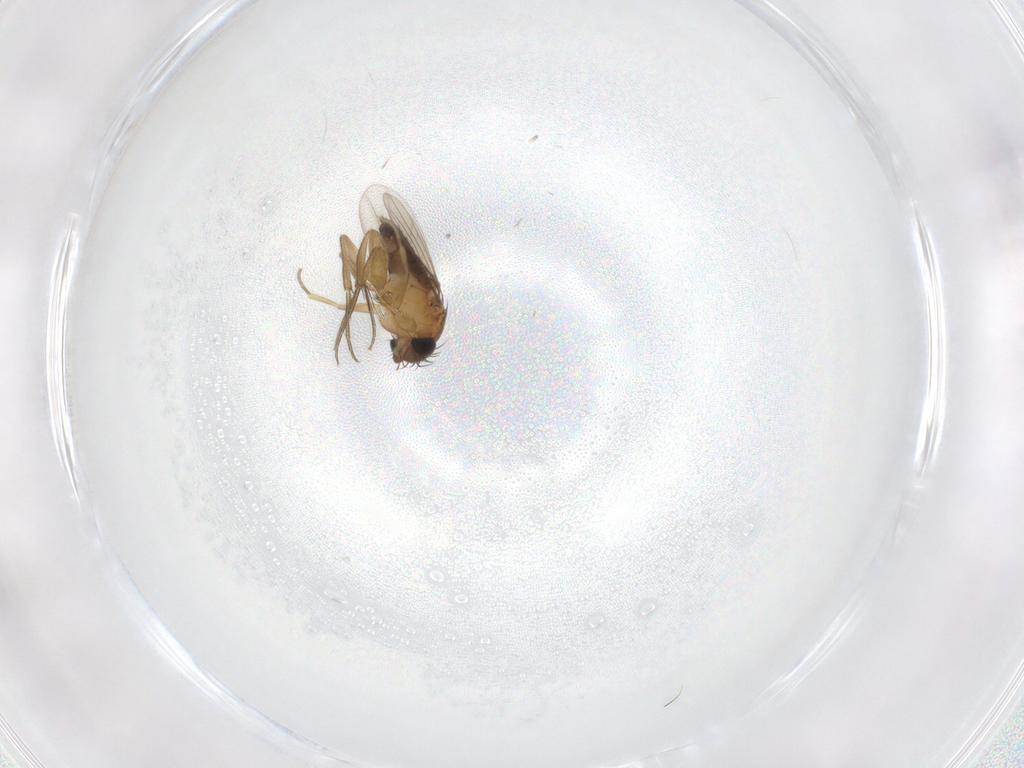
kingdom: Animalia
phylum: Arthropoda
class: Insecta
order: Diptera
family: Phoridae
